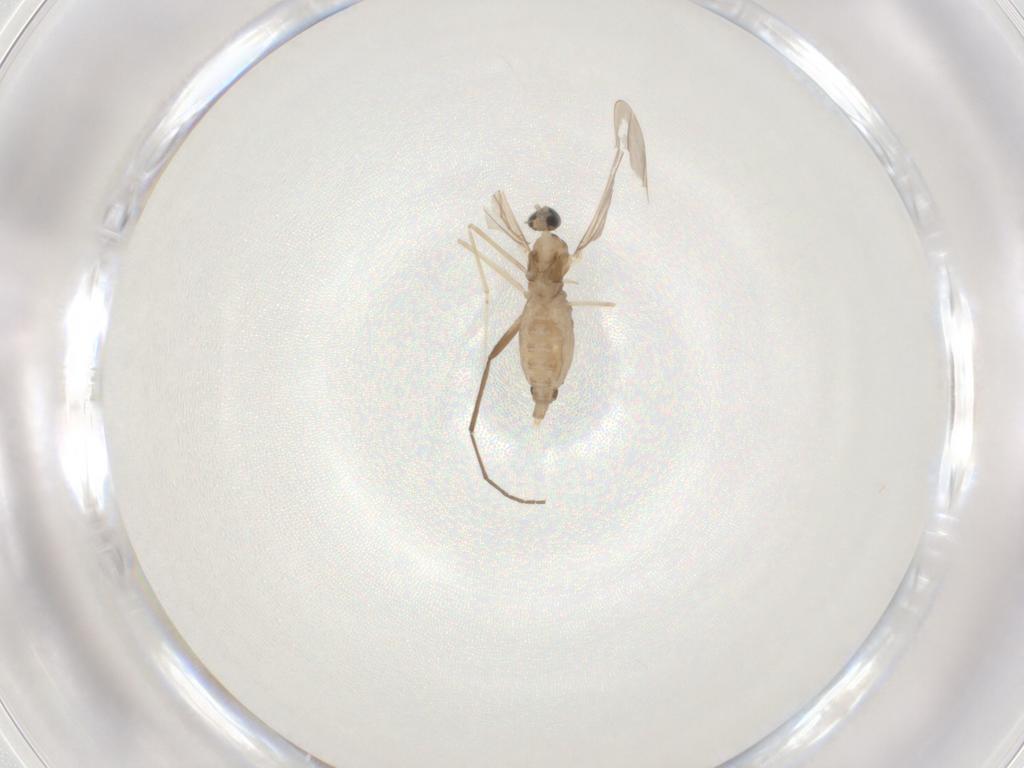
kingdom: Animalia
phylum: Arthropoda
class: Insecta
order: Diptera
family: Cecidomyiidae
